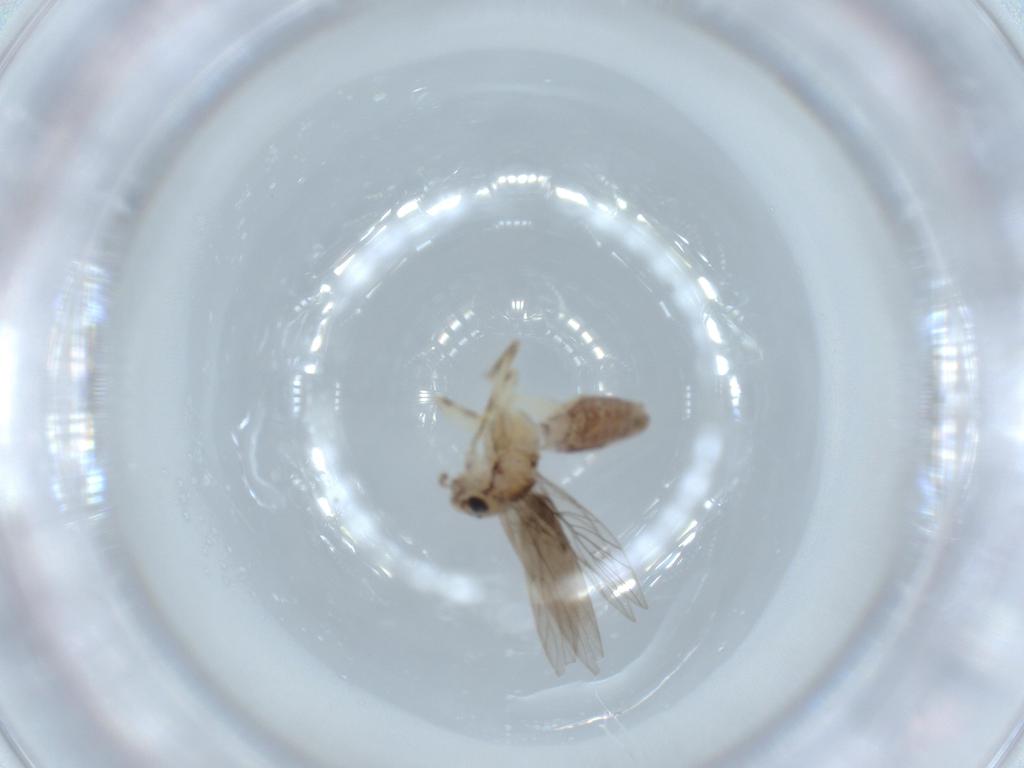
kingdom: Animalia
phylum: Arthropoda
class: Insecta
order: Psocodea
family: Lepidopsocidae
